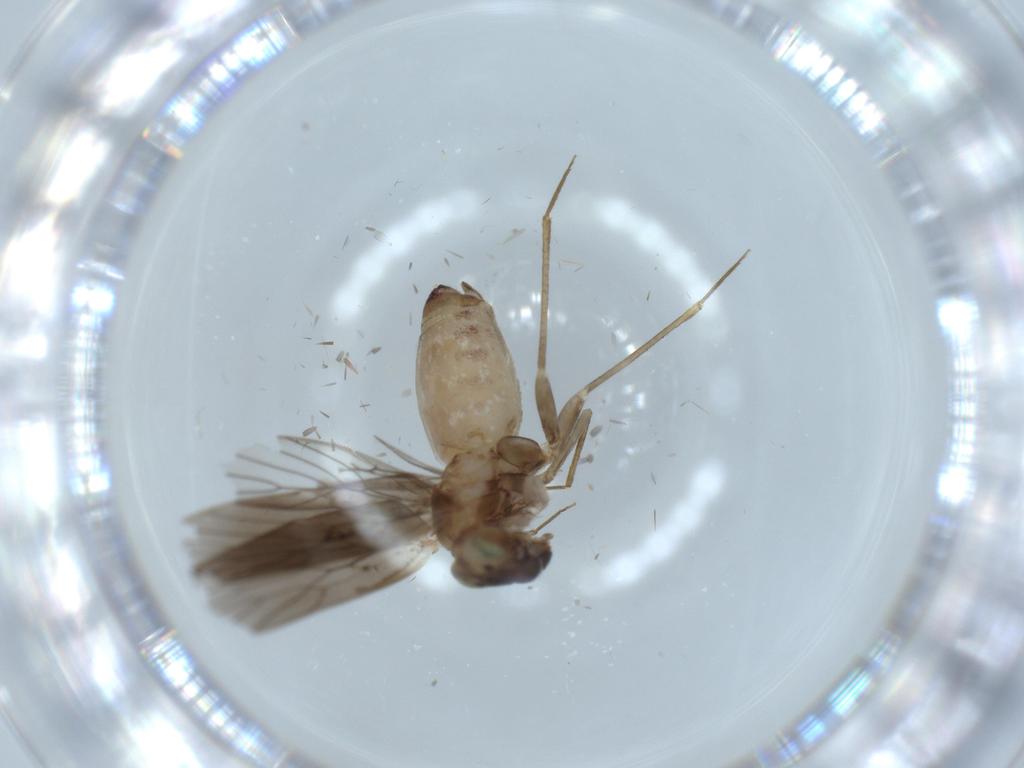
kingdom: Animalia
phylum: Arthropoda
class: Insecta
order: Psocodea
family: Lepidopsocidae
